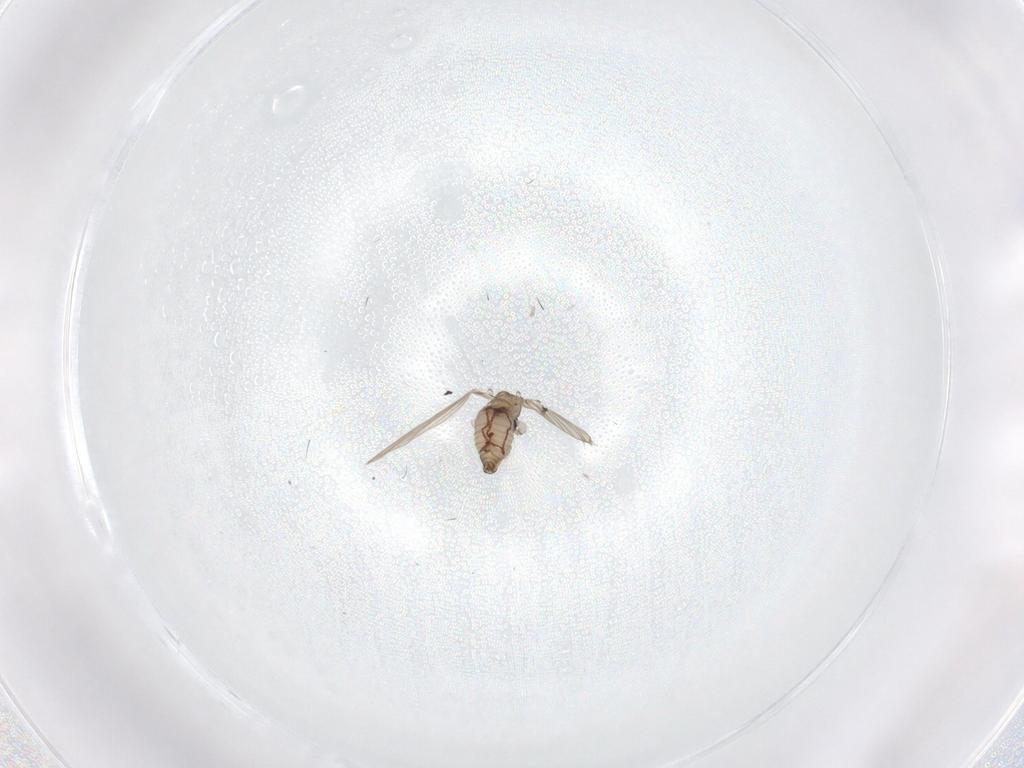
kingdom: Animalia
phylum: Arthropoda
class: Insecta
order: Diptera
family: Psychodidae
